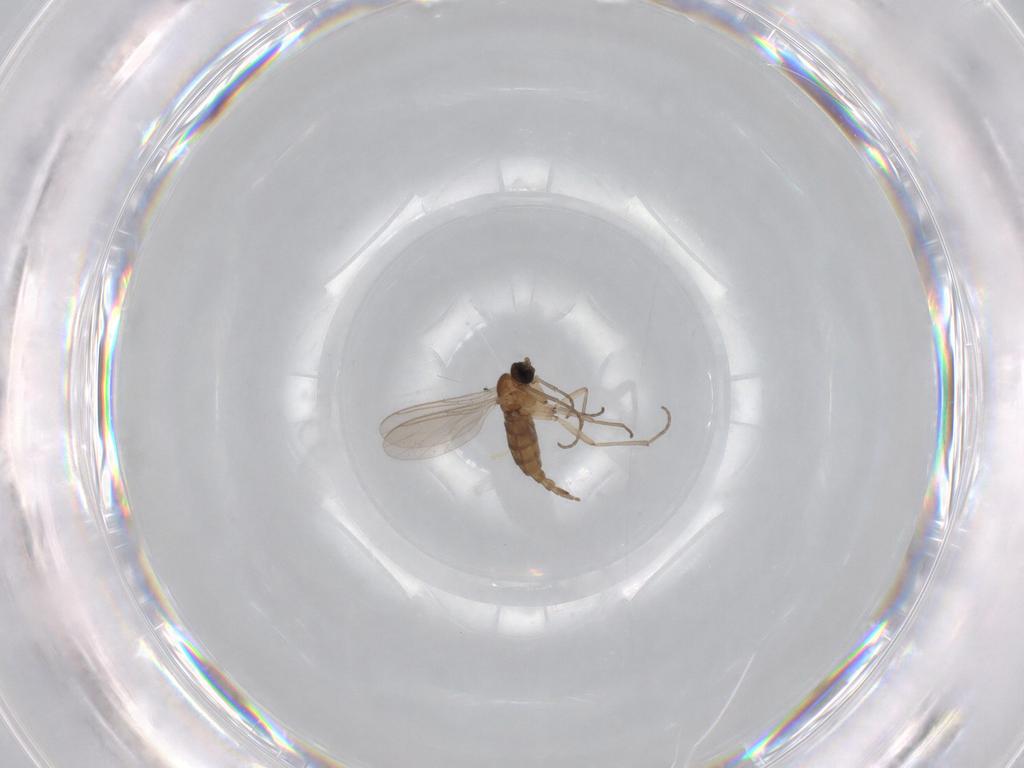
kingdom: Animalia
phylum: Arthropoda
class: Insecta
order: Diptera
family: Sciaridae
